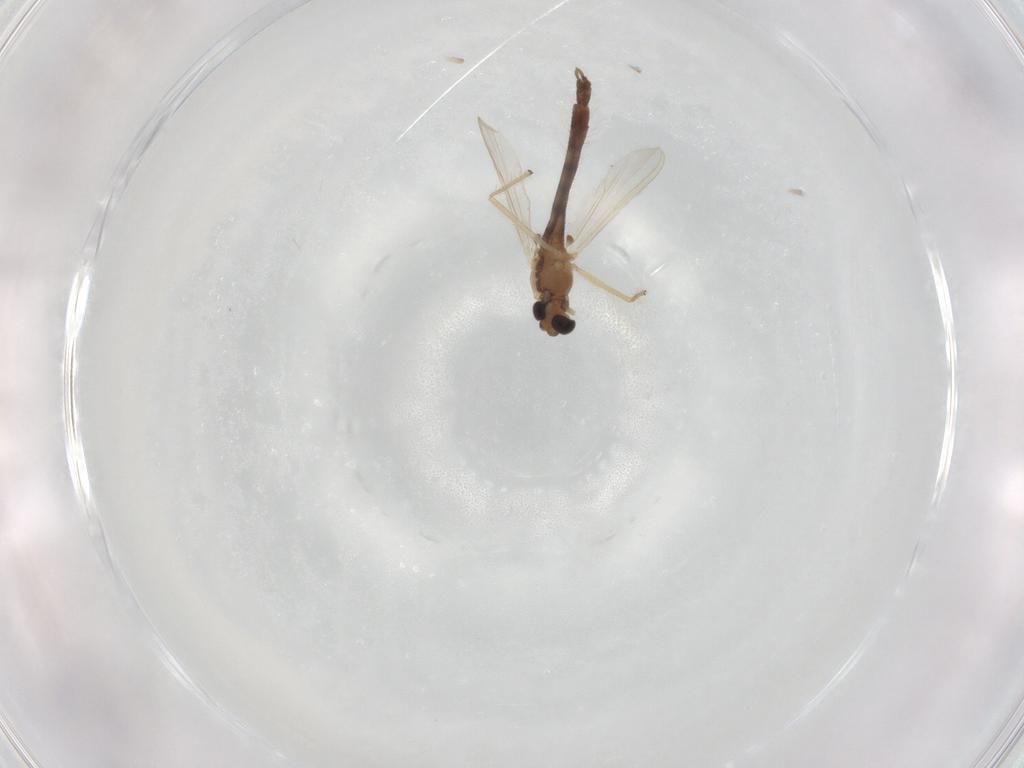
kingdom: Animalia
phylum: Arthropoda
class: Insecta
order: Diptera
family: Chironomidae
